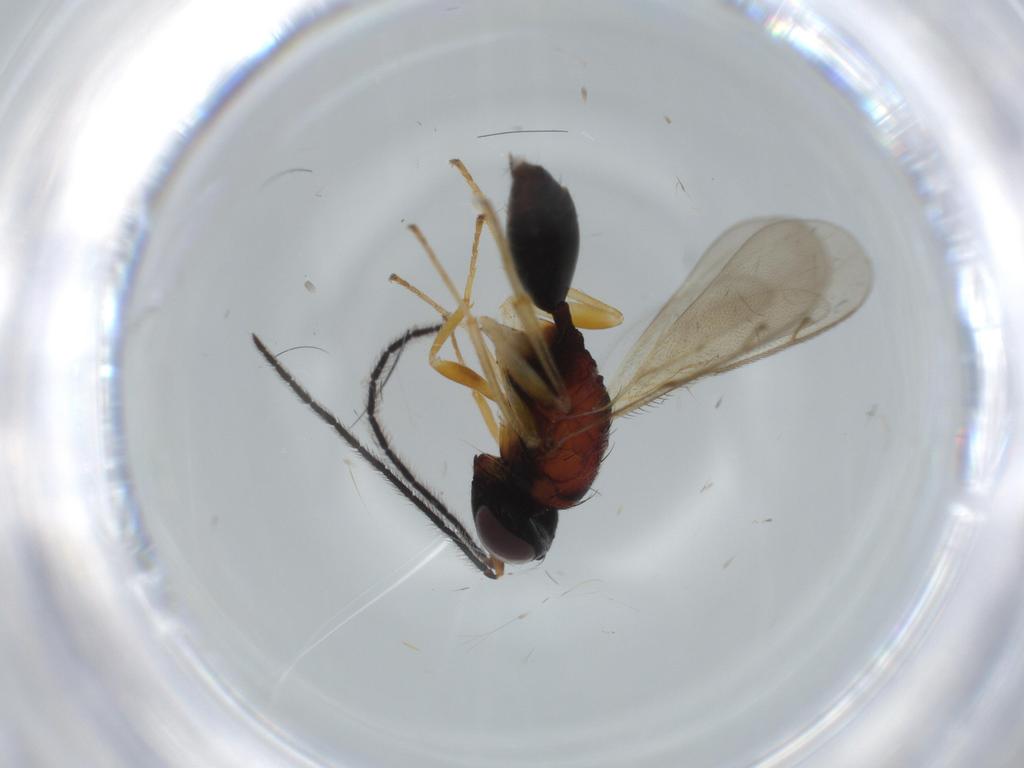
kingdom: Animalia
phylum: Arthropoda
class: Insecta
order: Hymenoptera
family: Diparidae
